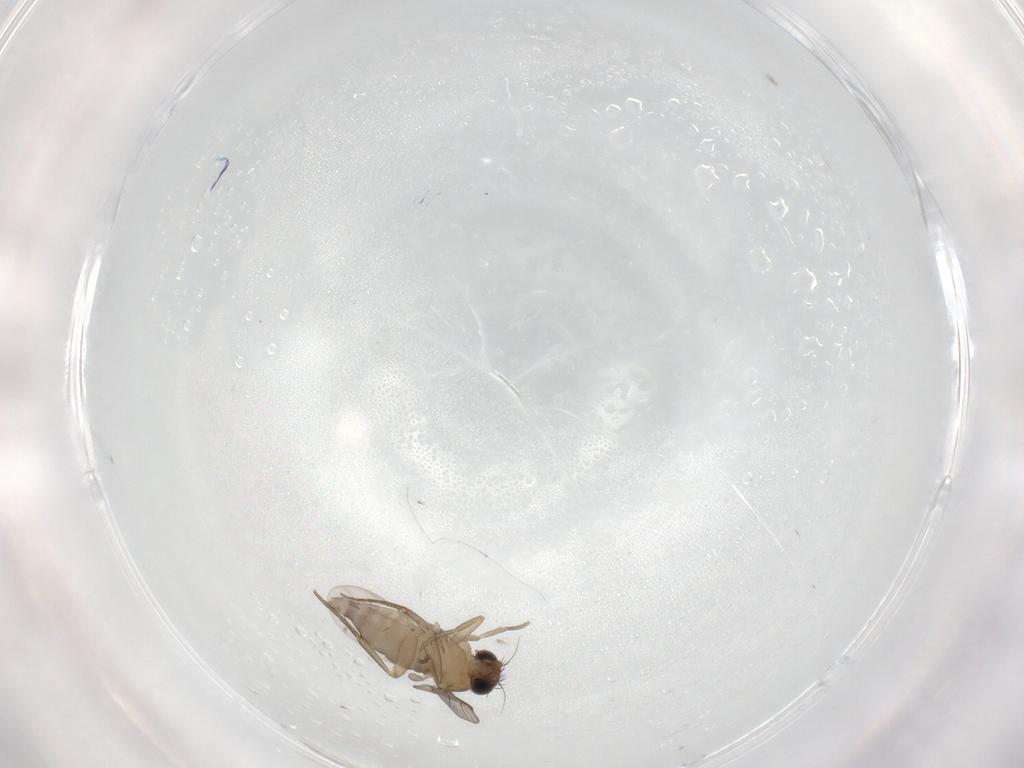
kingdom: Animalia
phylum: Arthropoda
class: Insecta
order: Diptera
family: Phoridae
